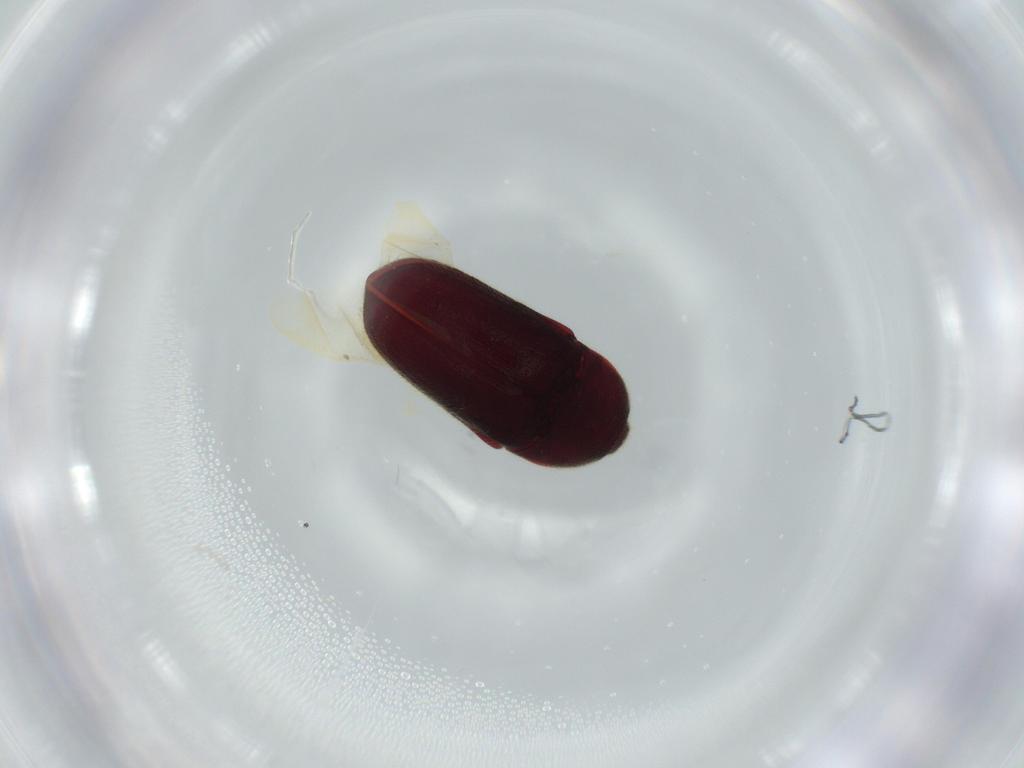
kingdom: Animalia
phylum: Arthropoda
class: Insecta
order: Coleoptera
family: Throscidae
